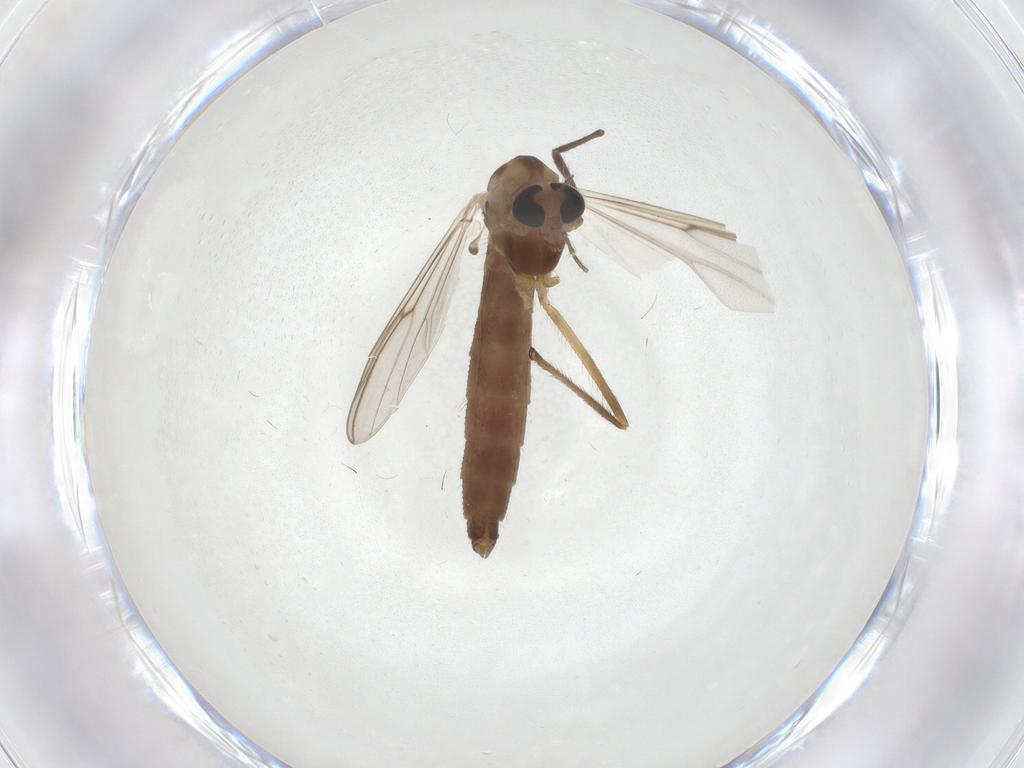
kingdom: Animalia
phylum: Arthropoda
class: Insecta
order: Diptera
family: Chironomidae
